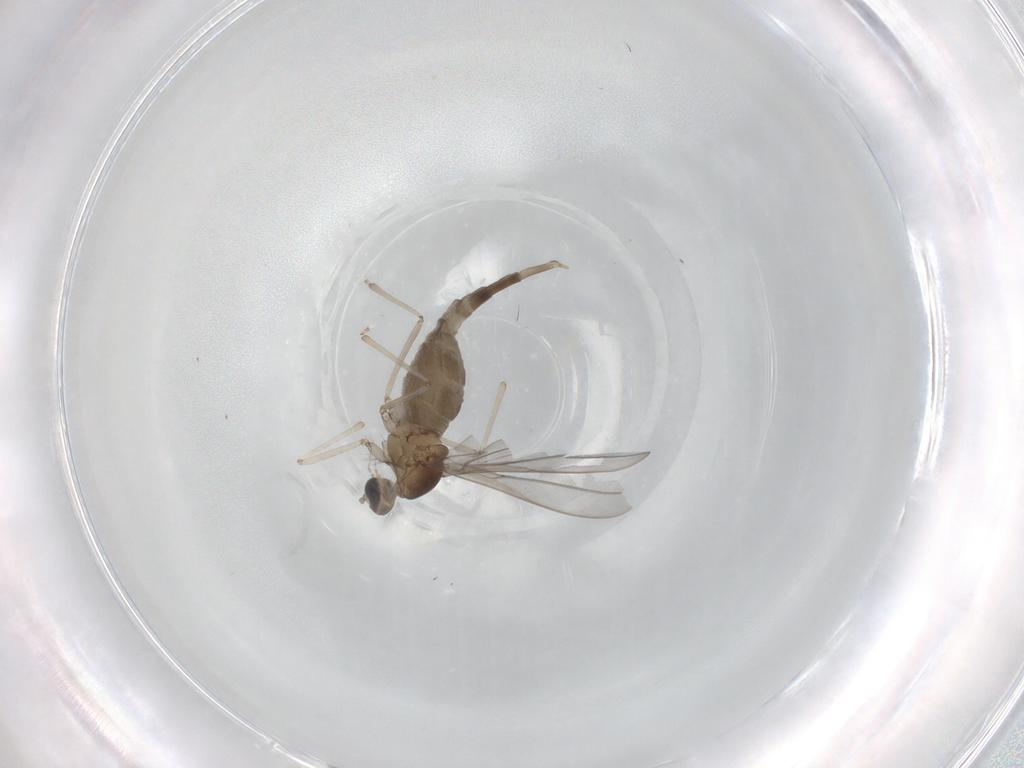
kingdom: Animalia
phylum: Arthropoda
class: Insecta
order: Diptera
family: Cecidomyiidae
